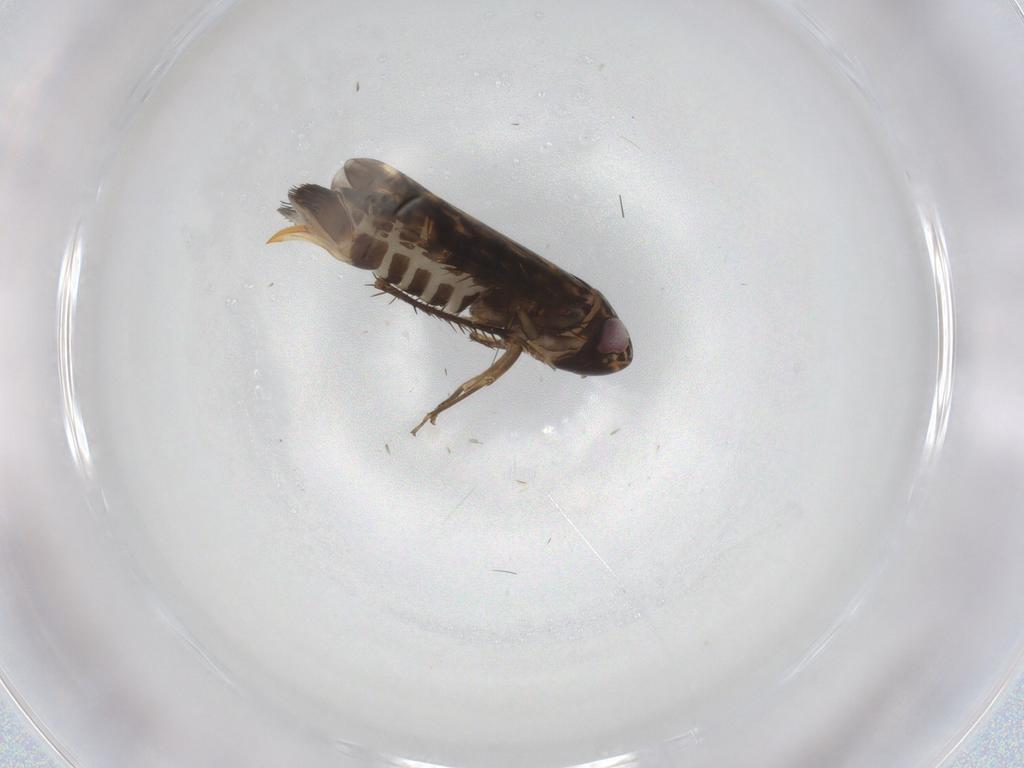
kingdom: Animalia
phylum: Arthropoda
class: Insecta
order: Hemiptera
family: Cicadellidae
